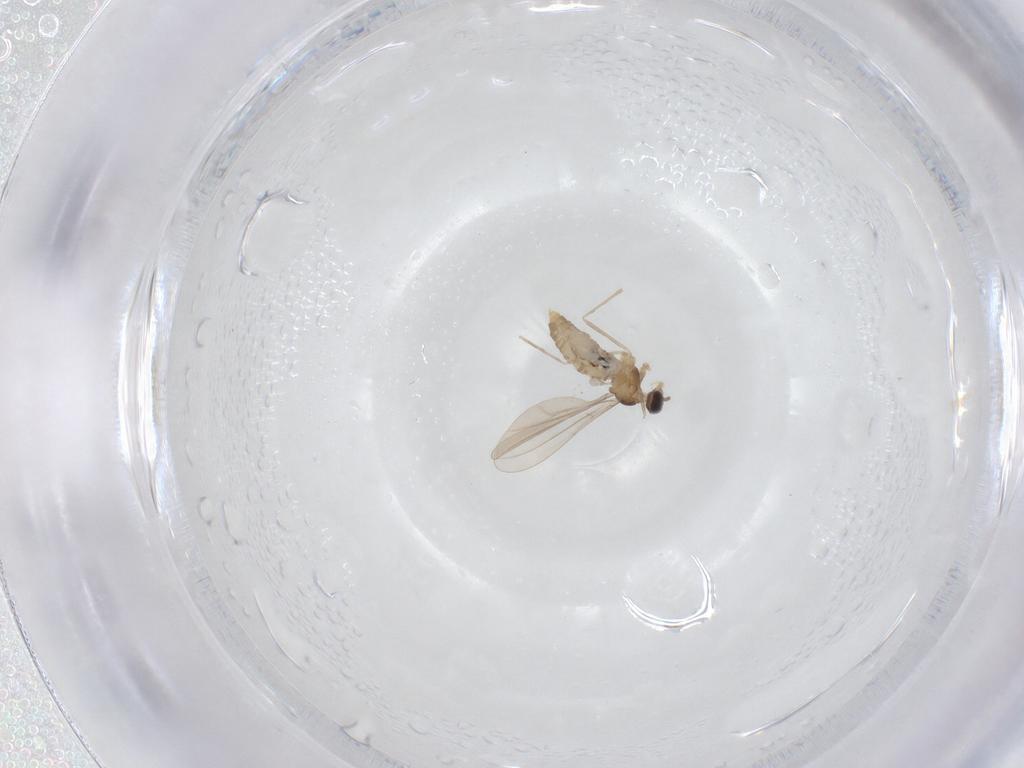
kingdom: Animalia
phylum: Arthropoda
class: Insecta
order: Diptera
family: Cecidomyiidae
